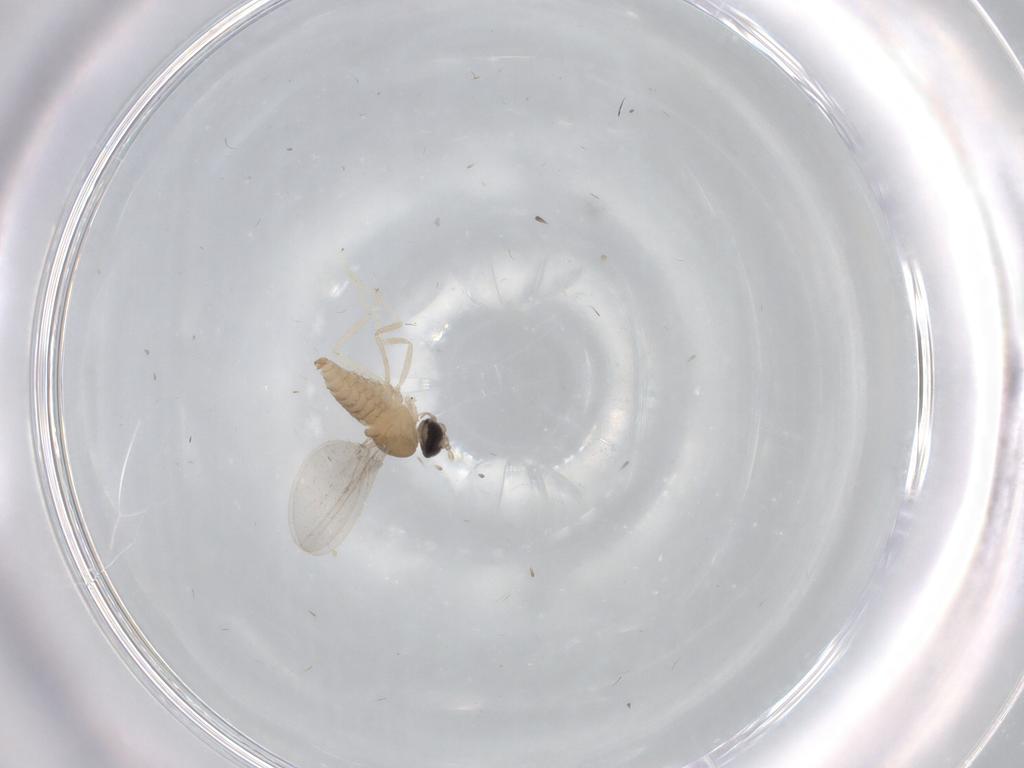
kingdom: Animalia
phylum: Arthropoda
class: Insecta
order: Diptera
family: Cecidomyiidae
